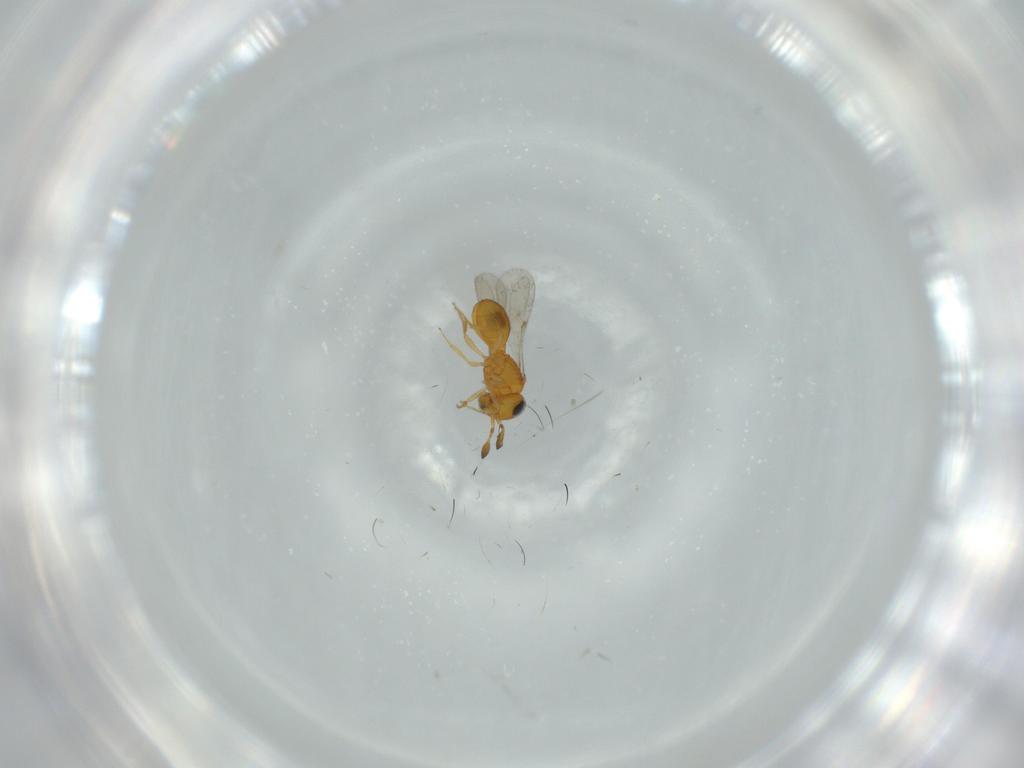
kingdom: Animalia
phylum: Arthropoda
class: Insecta
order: Hymenoptera
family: Scelionidae
